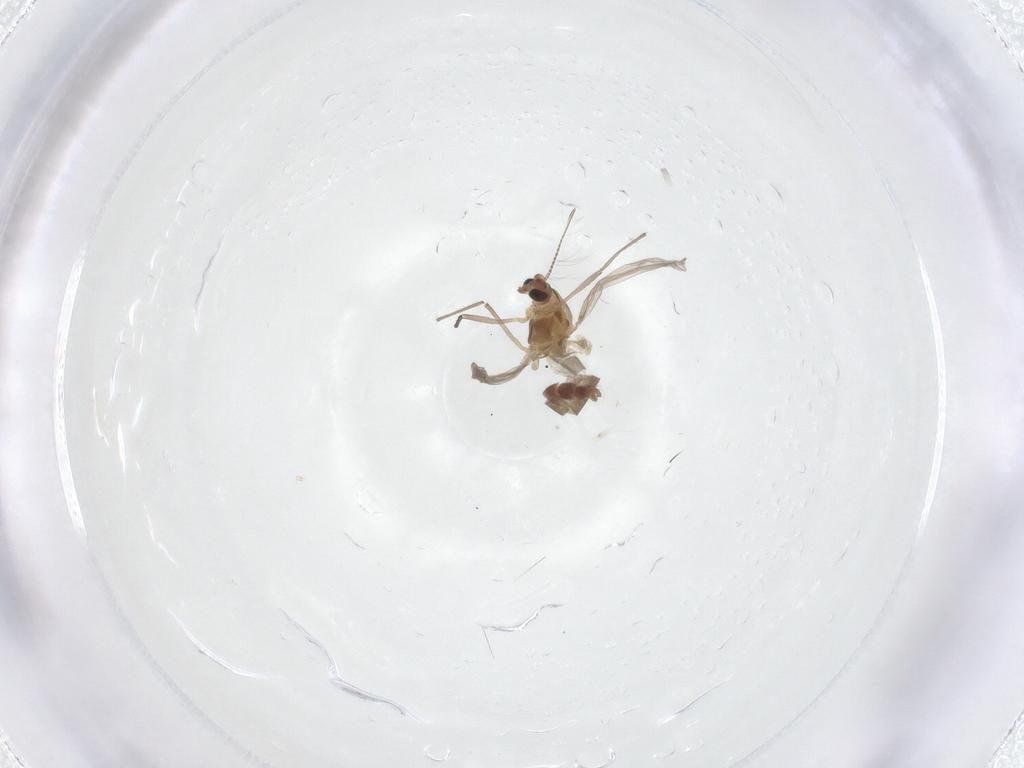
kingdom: Animalia
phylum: Arthropoda
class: Insecta
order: Diptera
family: Chironomidae
